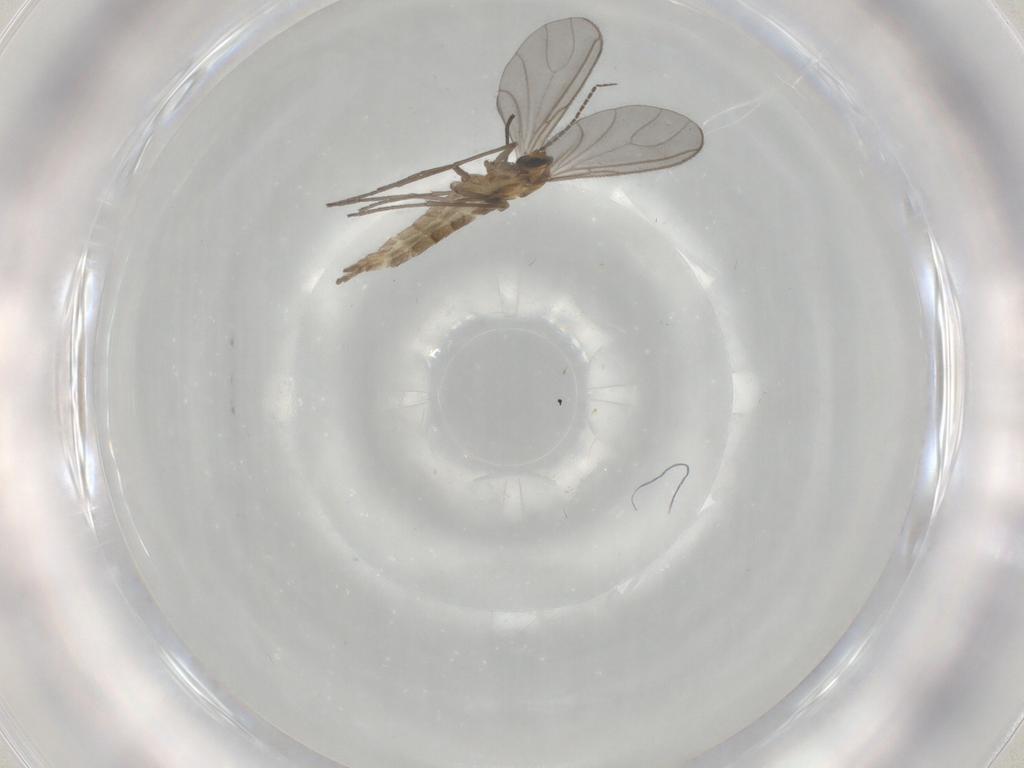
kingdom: Animalia
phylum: Arthropoda
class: Insecta
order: Diptera
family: Sciaridae
